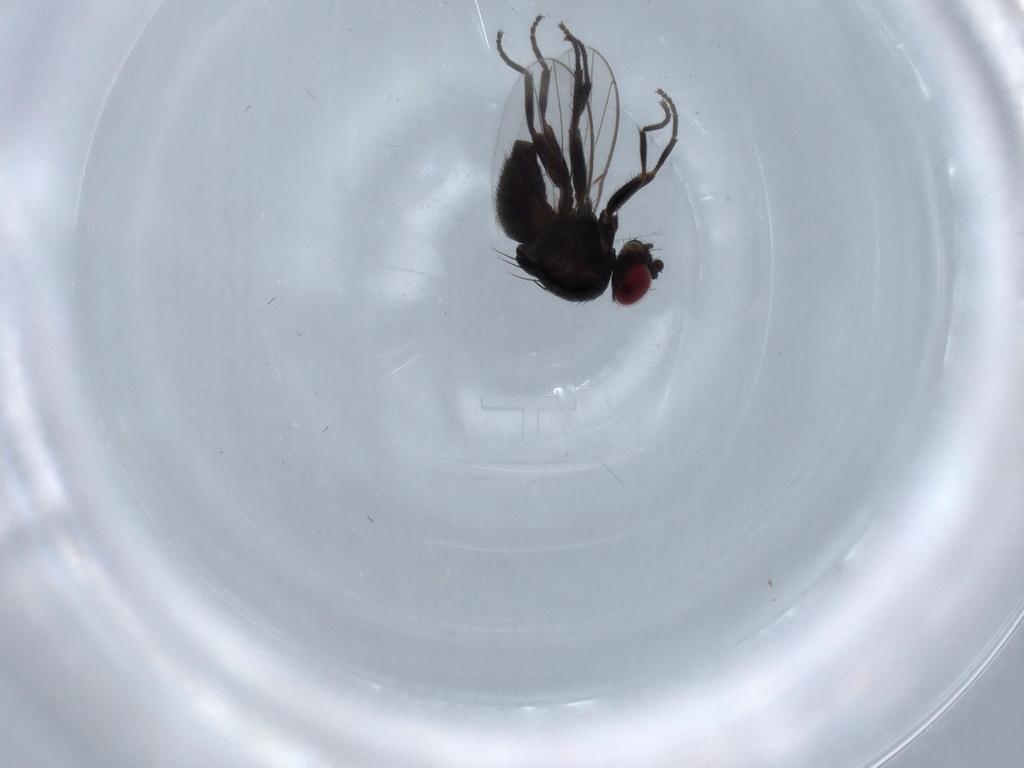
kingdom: Animalia
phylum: Arthropoda
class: Insecta
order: Diptera
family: Agromyzidae
